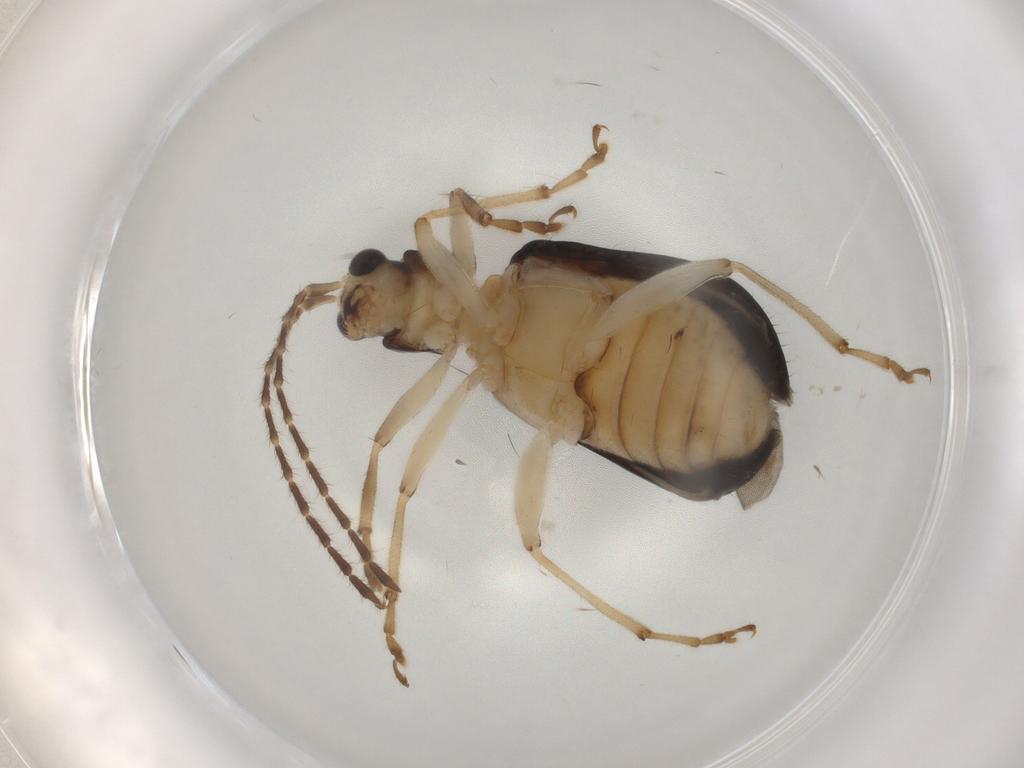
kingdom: Animalia
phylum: Arthropoda
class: Insecta
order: Coleoptera
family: Chrysomelidae
